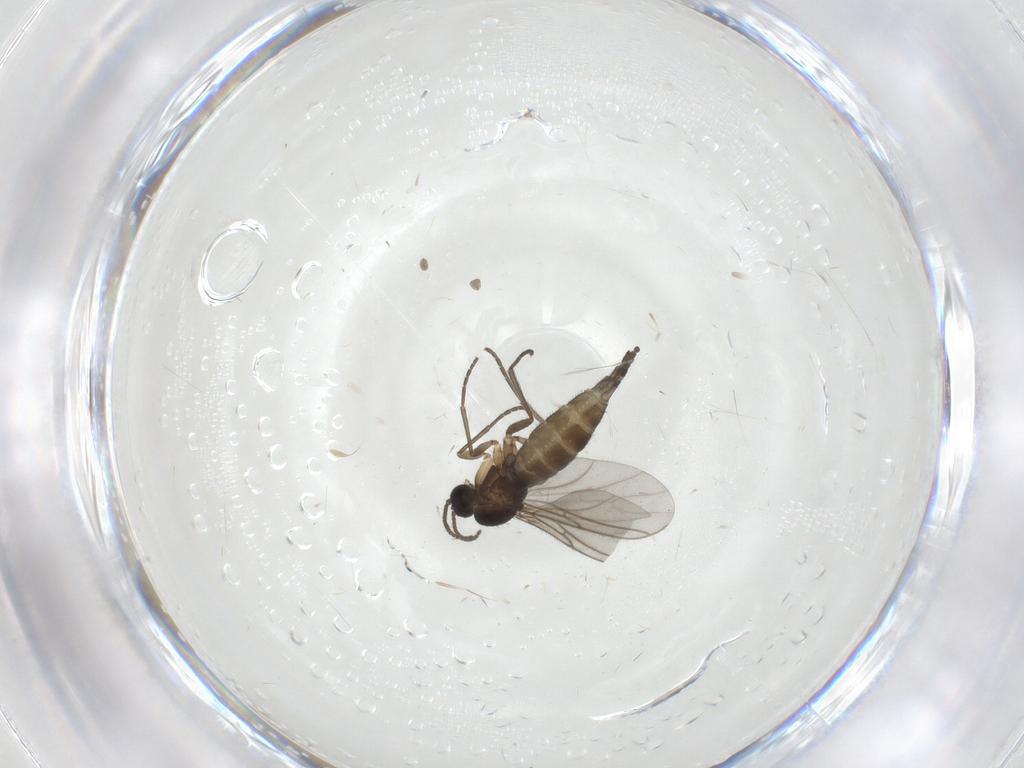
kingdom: Animalia
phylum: Arthropoda
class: Insecta
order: Diptera
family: Sciaridae
